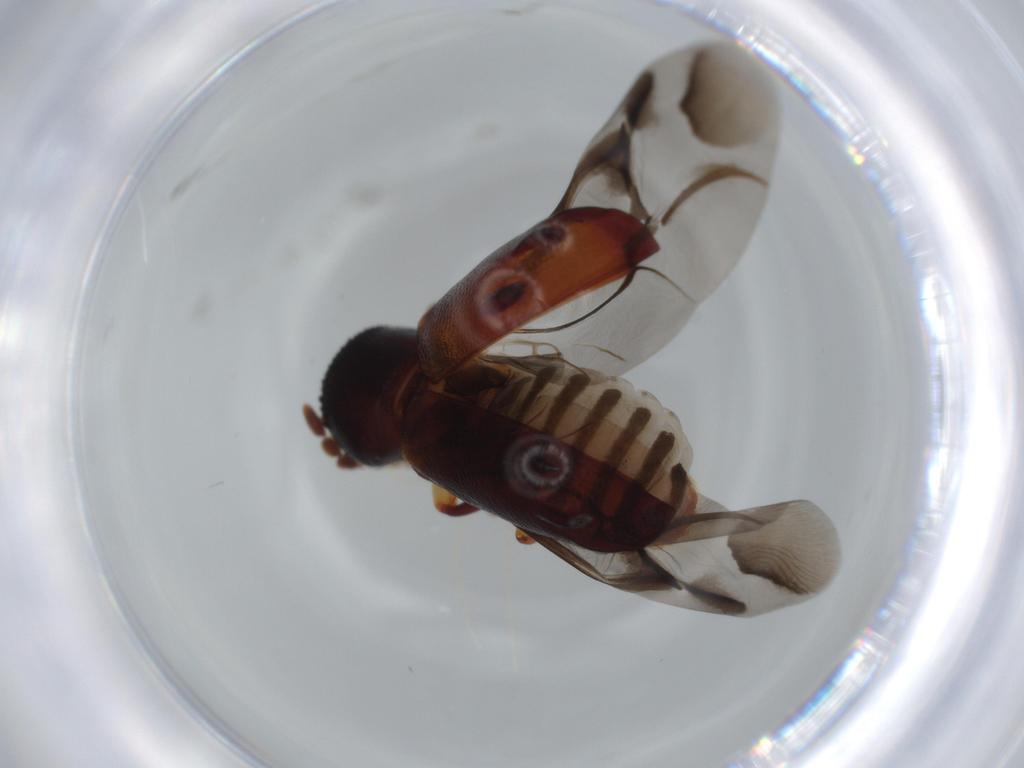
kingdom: Animalia
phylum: Arthropoda
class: Insecta
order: Coleoptera
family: Bostrichidae
